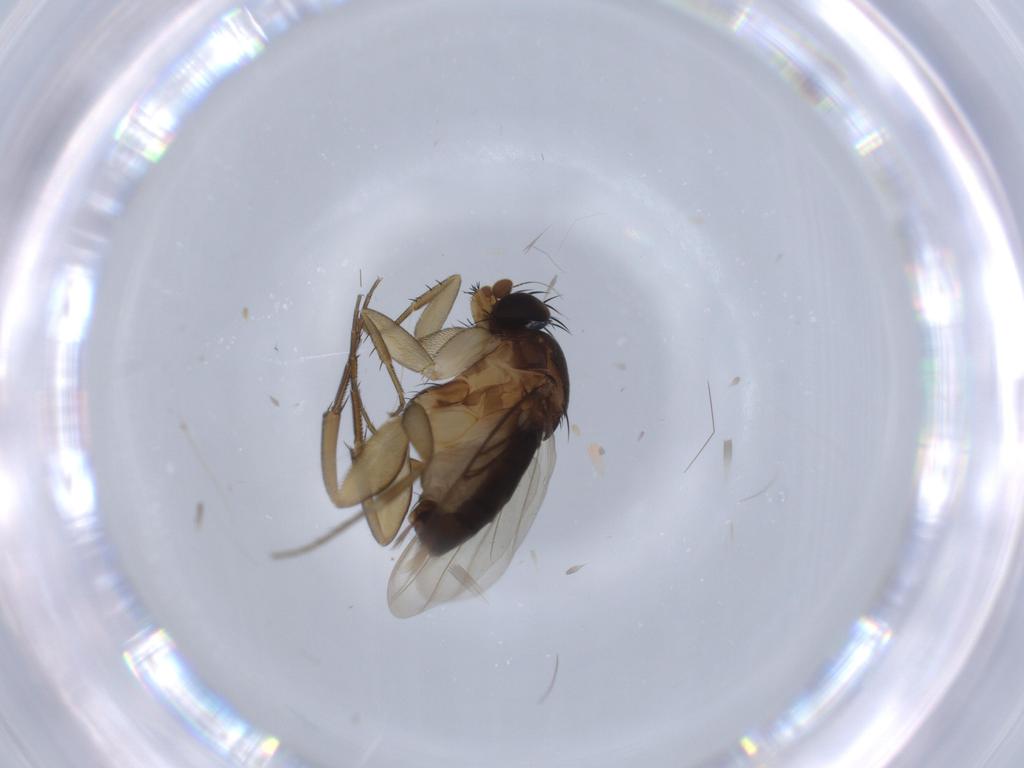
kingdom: Animalia
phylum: Arthropoda
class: Insecta
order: Diptera
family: Phoridae
